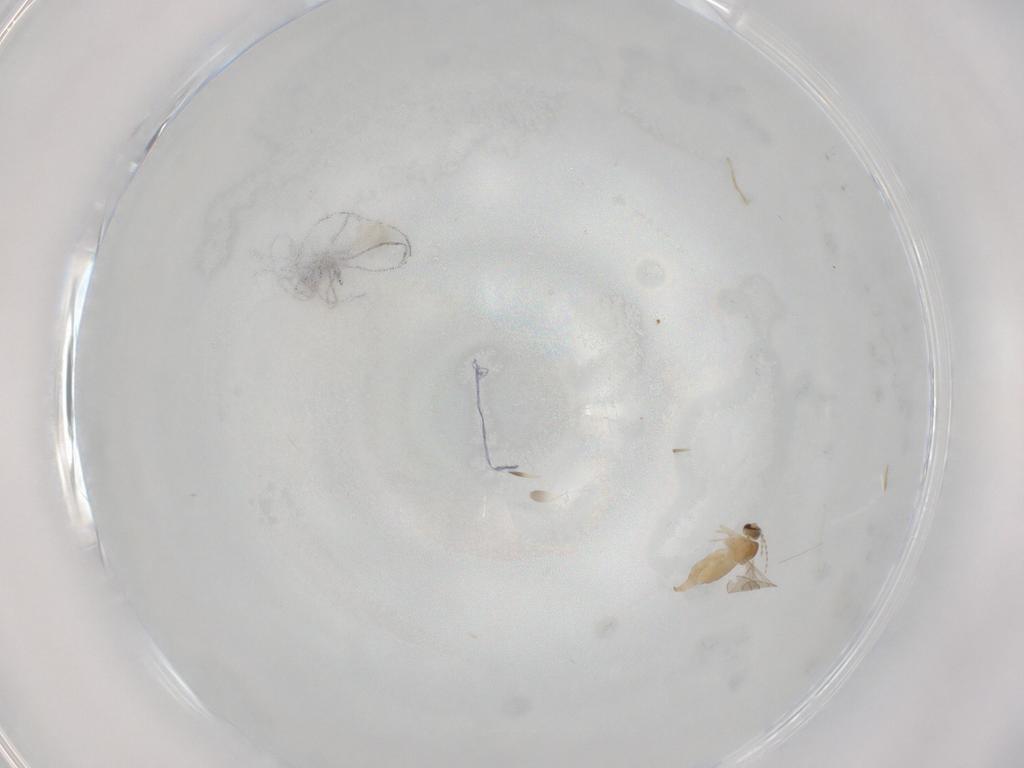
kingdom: Animalia
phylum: Arthropoda
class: Insecta
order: Diptera
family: Cecidomyiidae
